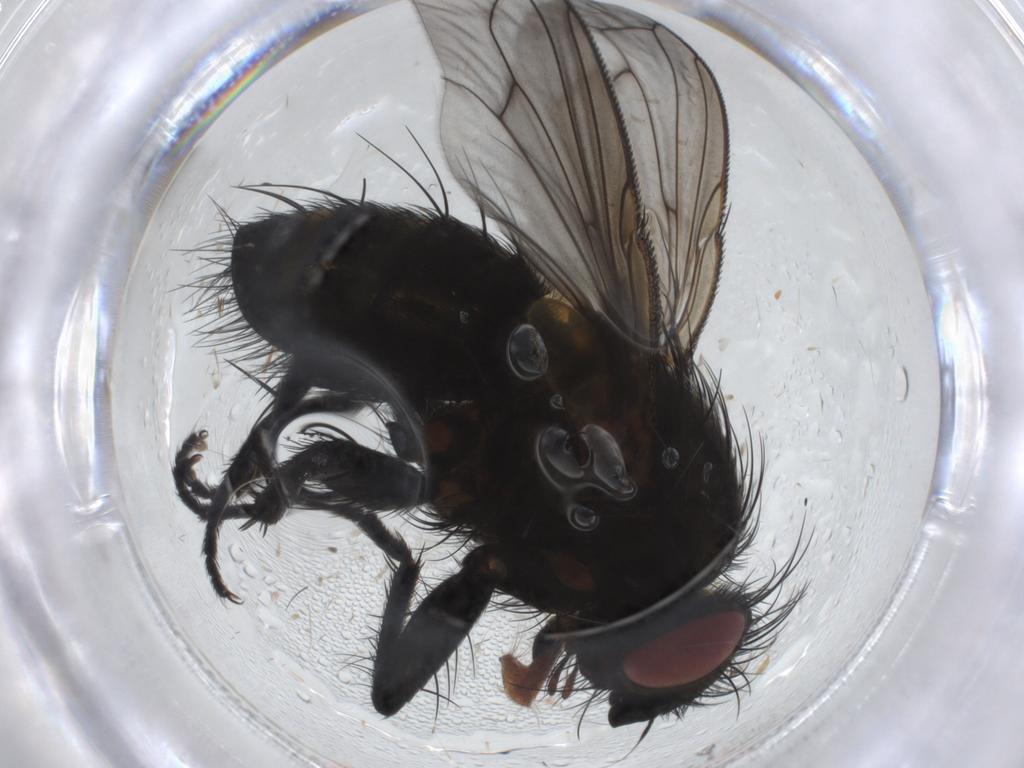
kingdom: Animalia
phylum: Arthropoda
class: Insecta
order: Diptera
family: Tachinidae
